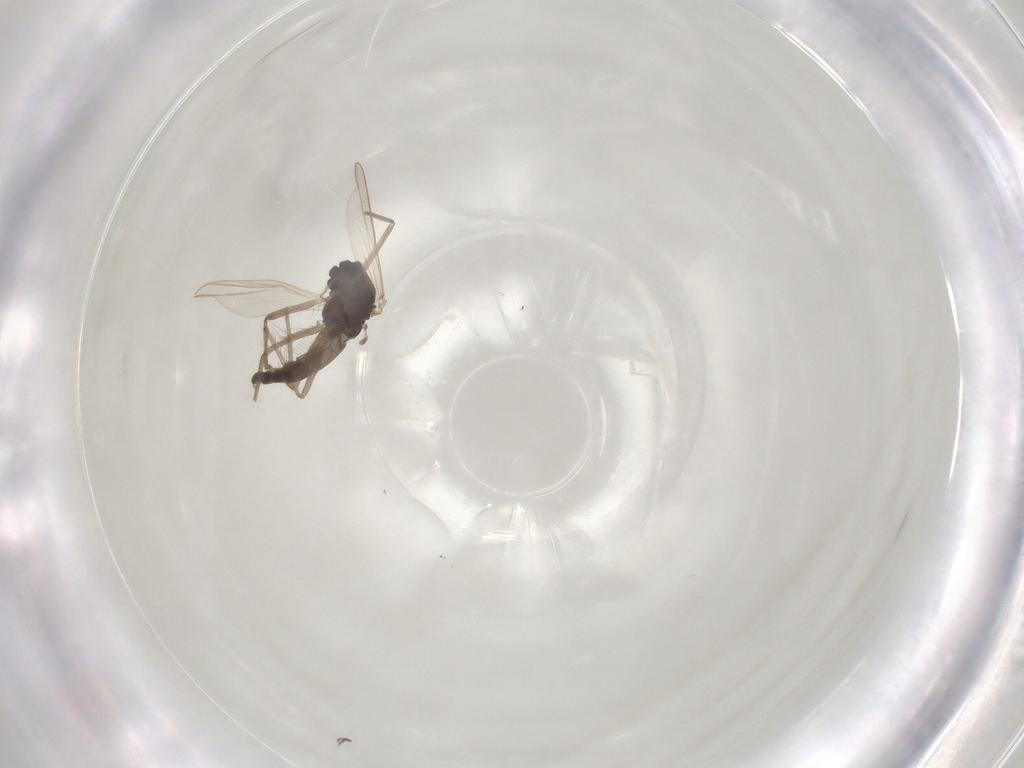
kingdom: Animalia
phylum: Arthropoda
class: Insecta
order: Diptera
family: Chironomidae
